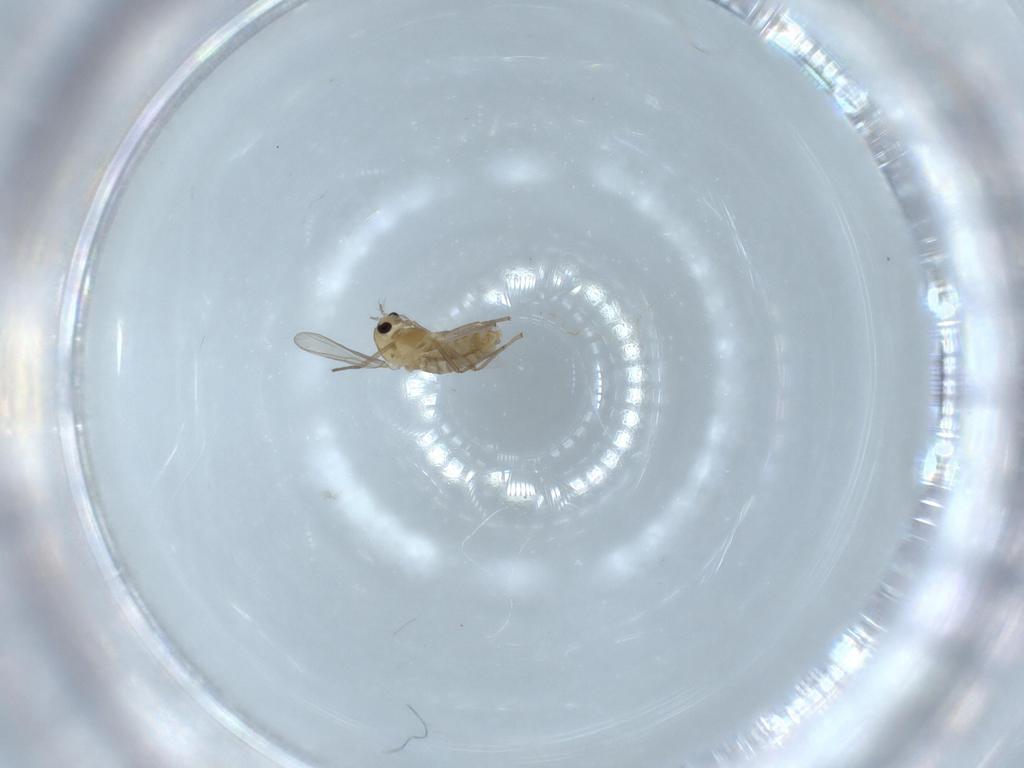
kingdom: Animalia
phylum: Arthropoda
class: Insecta
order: Diptera
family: Chironomidae
